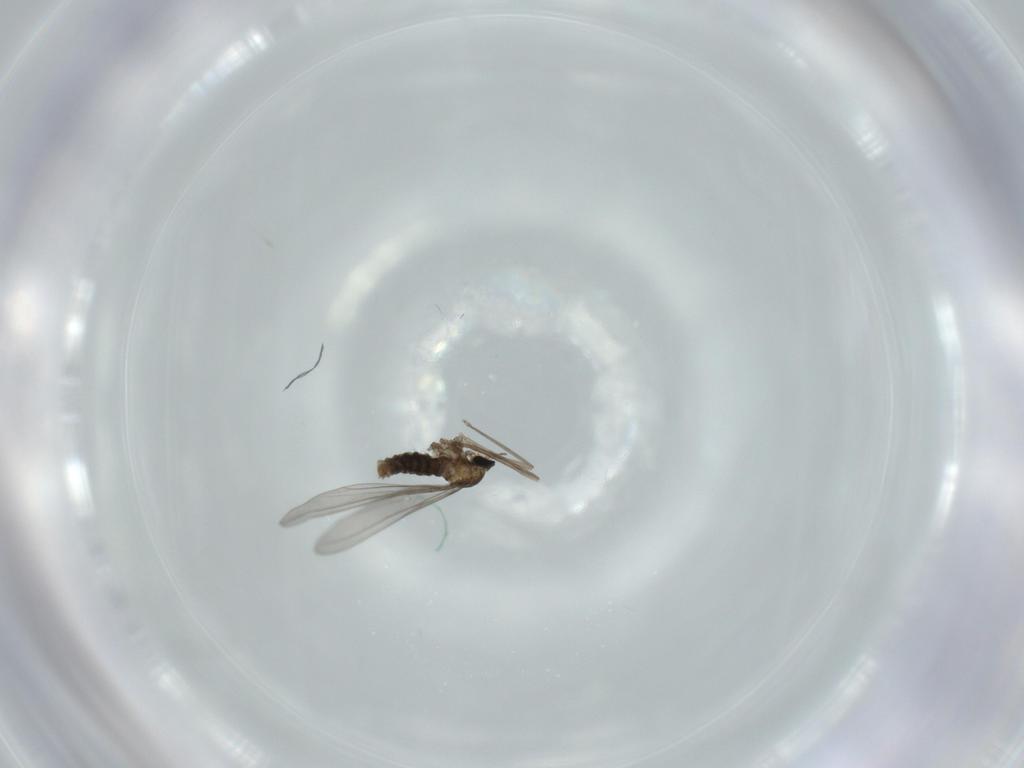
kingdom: Animalia
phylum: Arthropoda
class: Insecta
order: Diptera
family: Cecidomyiidae
